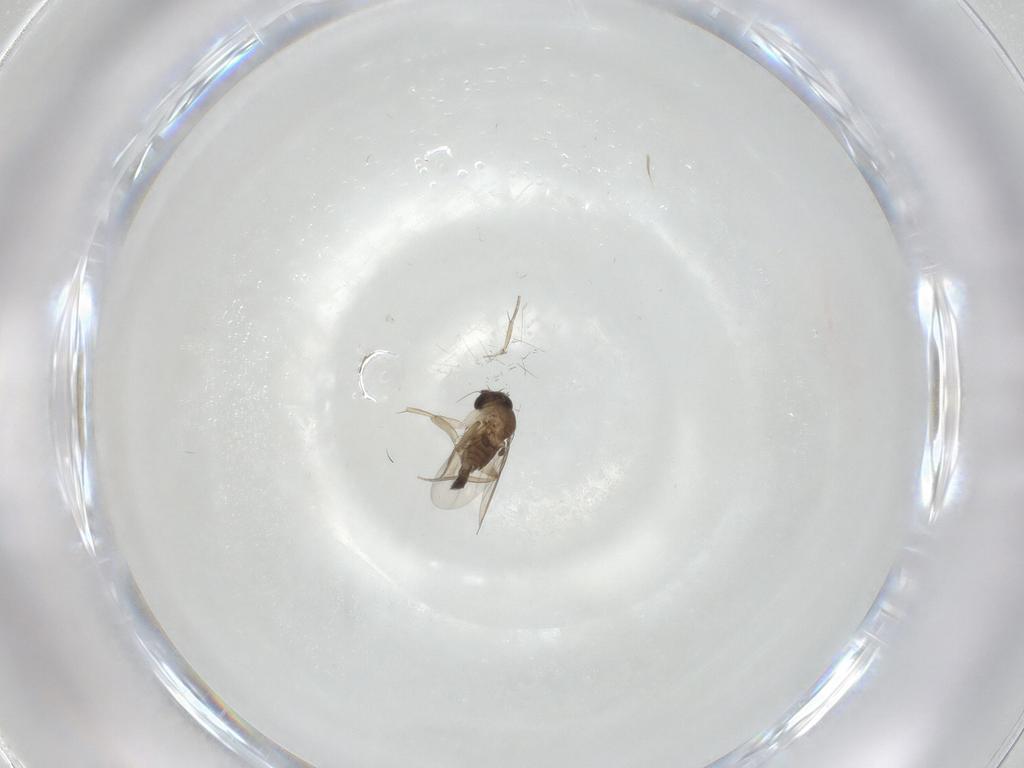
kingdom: Animalia
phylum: Arthropoda
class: Insecta
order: Diptera
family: Phoridae
